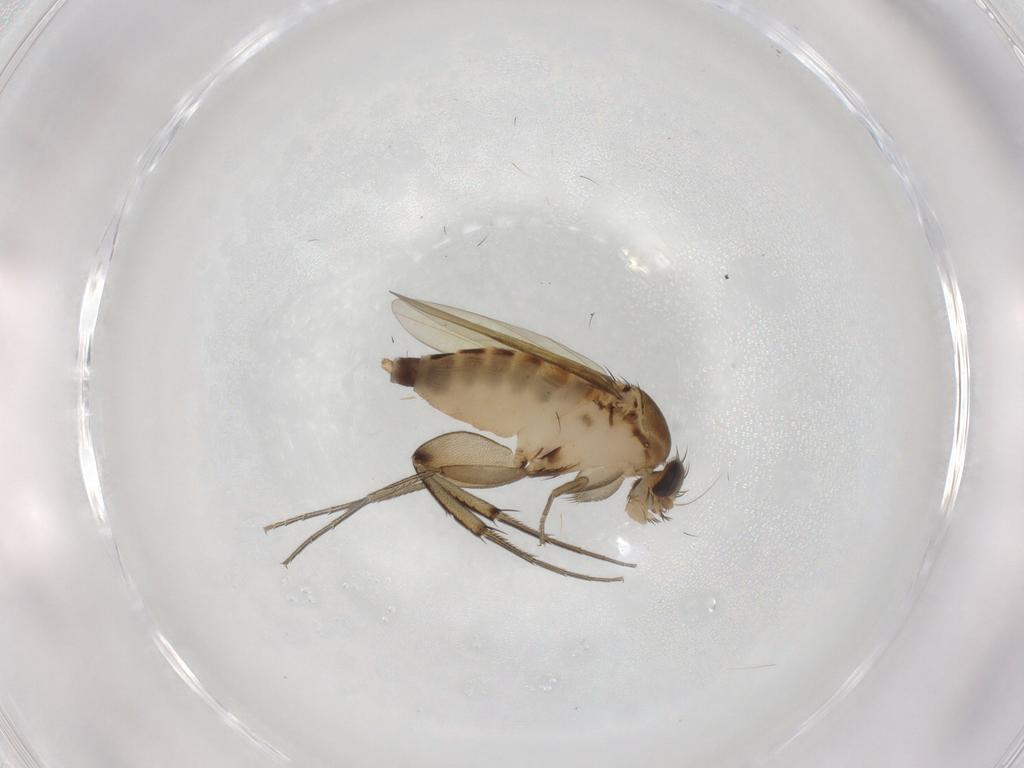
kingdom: Animalia
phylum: Arthropoda
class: Insecta
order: Diptera
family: Phoridae
